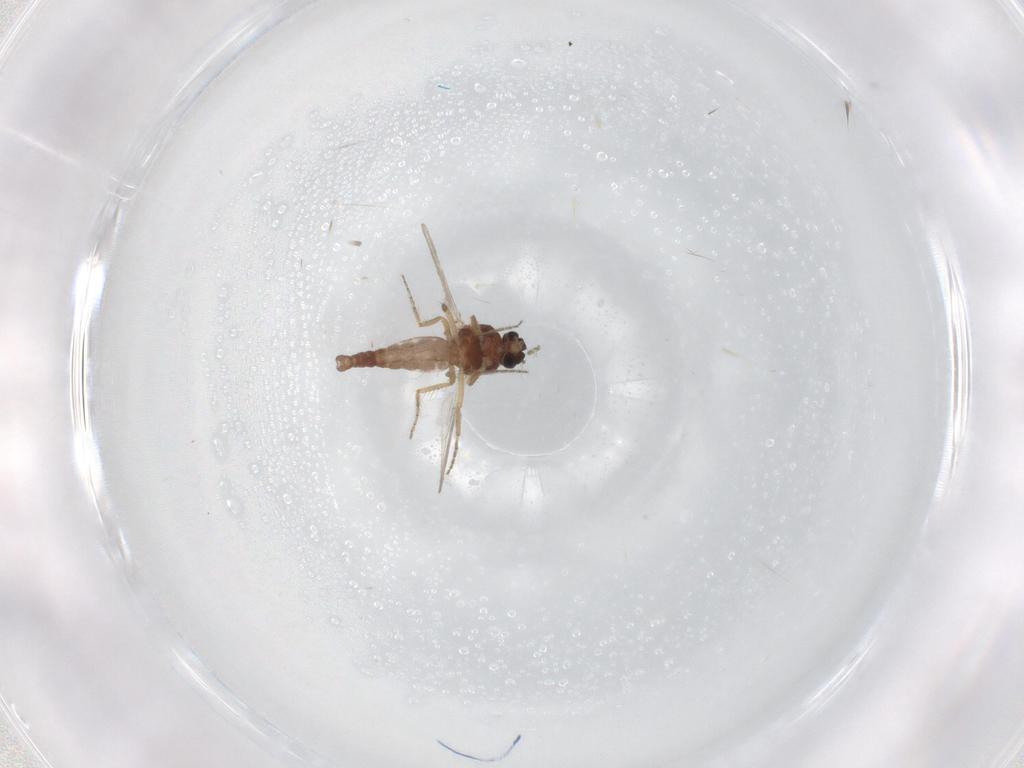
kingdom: Animalia
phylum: Arthropoda
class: Insecta
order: Diptera
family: Ceratopogonidae
